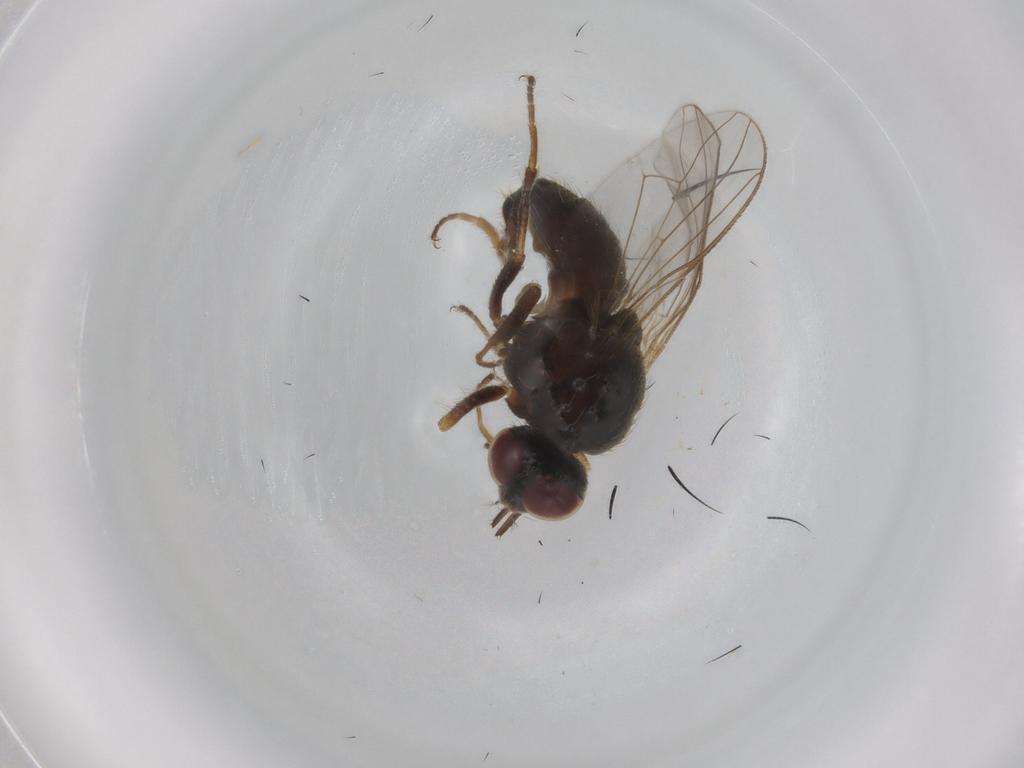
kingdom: Animalia
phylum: Arthropoda
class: Insecta
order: Diptera
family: Muscidae
